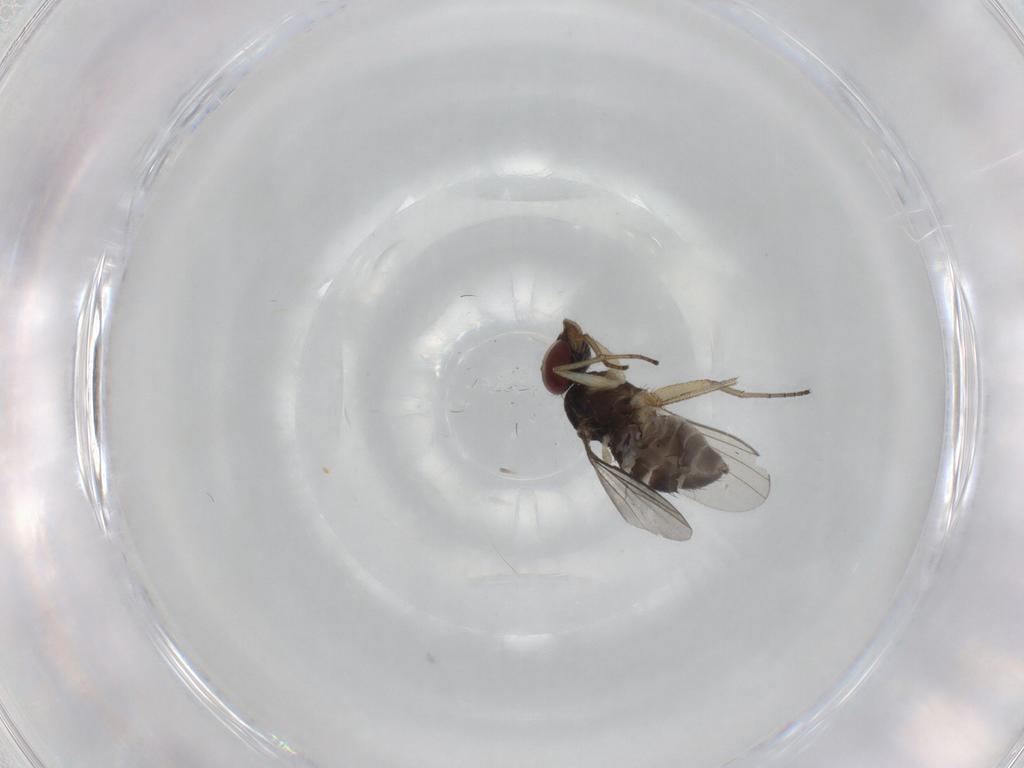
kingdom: Animalia
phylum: Arthropoda
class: Insecta
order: Diptera
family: Dolichopodidae
